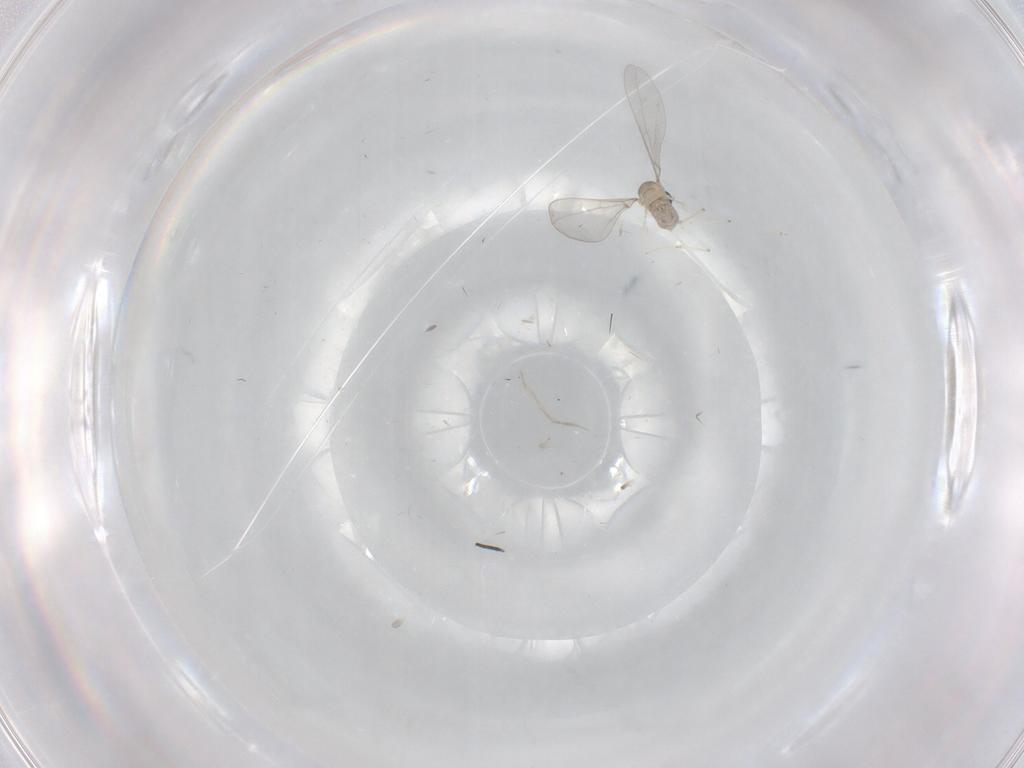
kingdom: Animalia
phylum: Arthropoda
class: Insecta
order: Diptera
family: Cecidomyiidae
